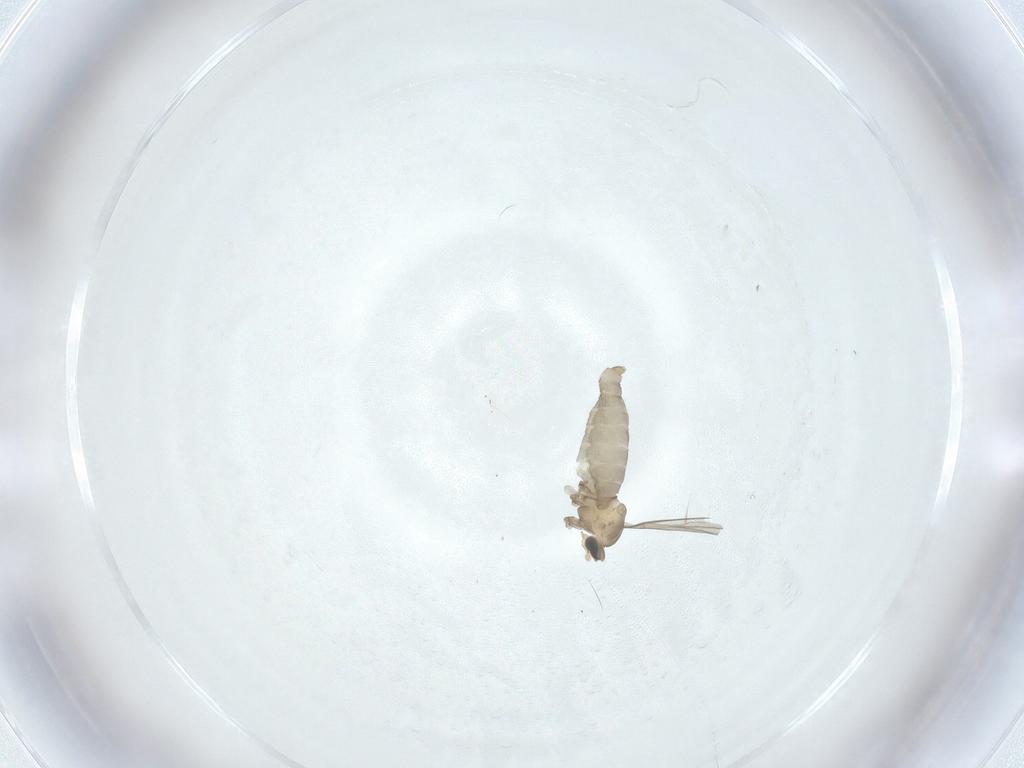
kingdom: Animalia
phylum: Arthropoda
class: Insecta
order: Diptera
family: Cecidomyiidae
